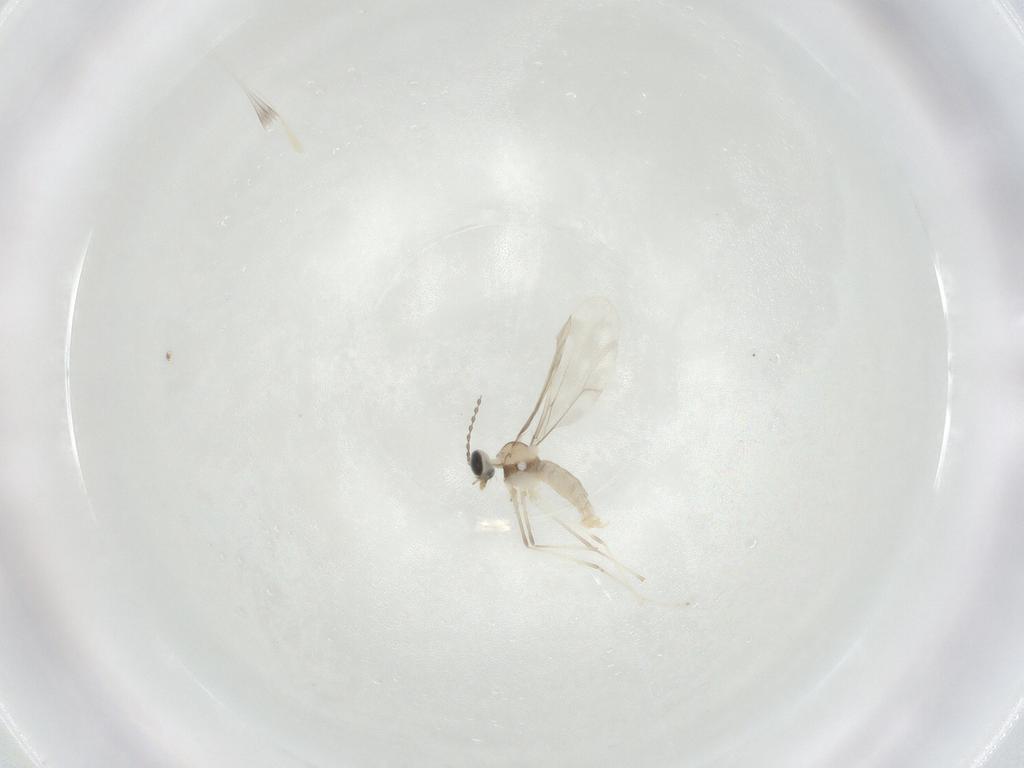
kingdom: Animalia
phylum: Arthropoda
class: Insecta
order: Diptera
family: Cecidomyiidae
